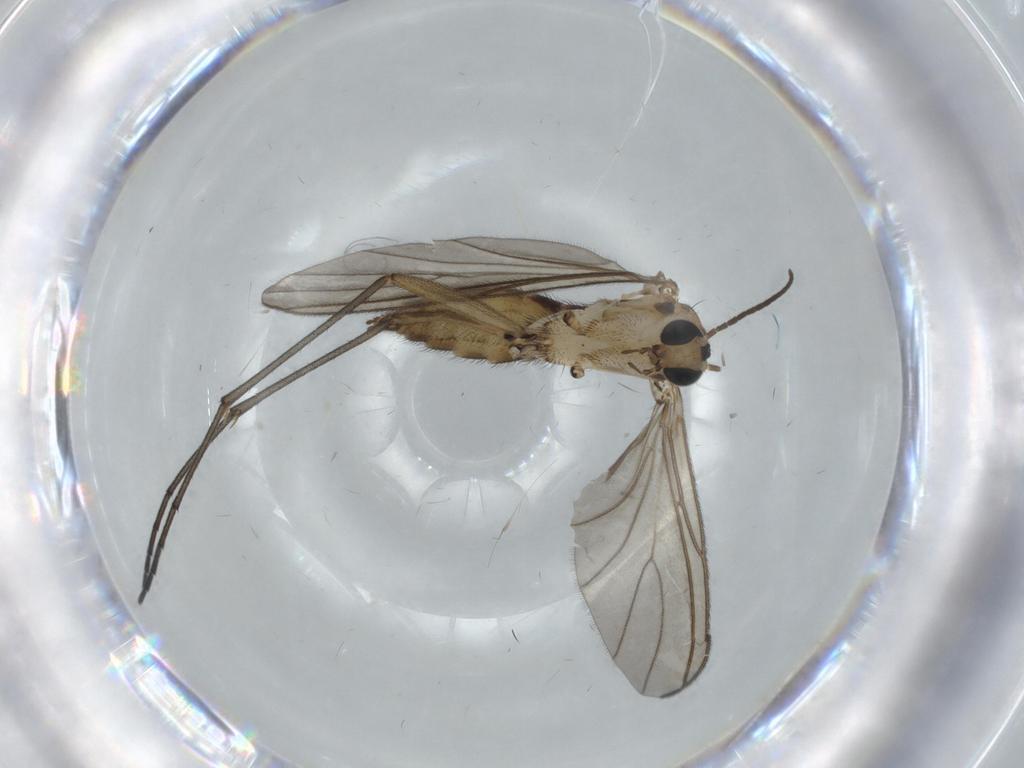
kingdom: Animalia
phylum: Arthropoda
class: Insecta
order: Diptera
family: Sciaridae
